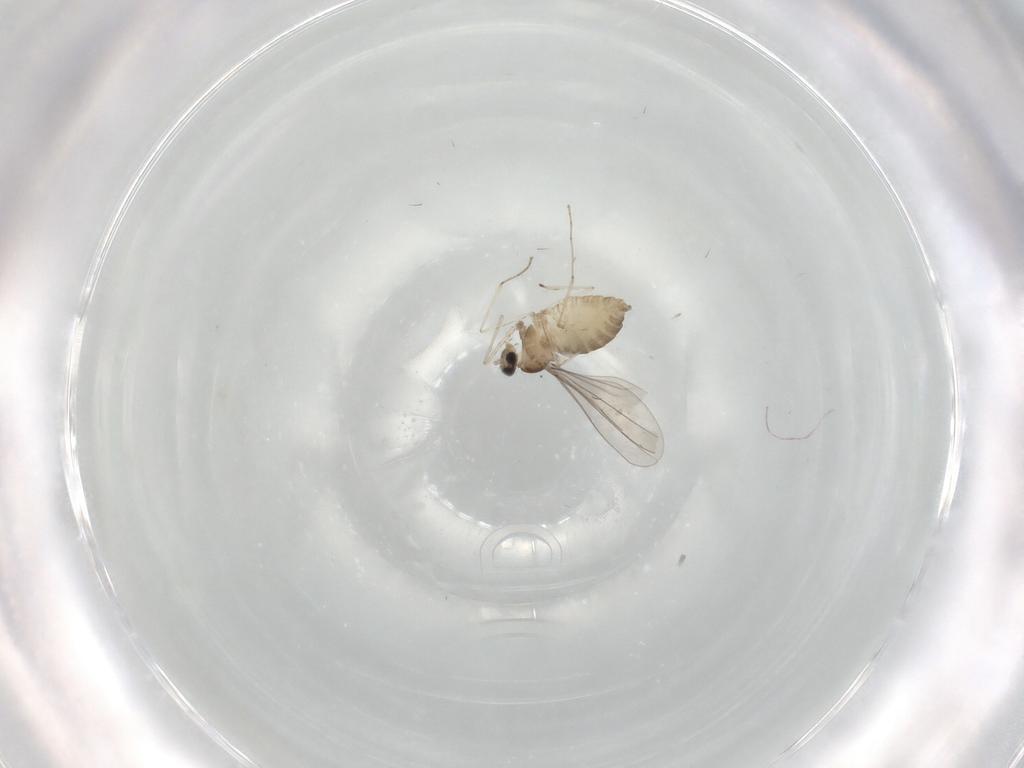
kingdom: Animalia
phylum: Arthropoda
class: Insecta
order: Diptera
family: Cecidomyiidae
